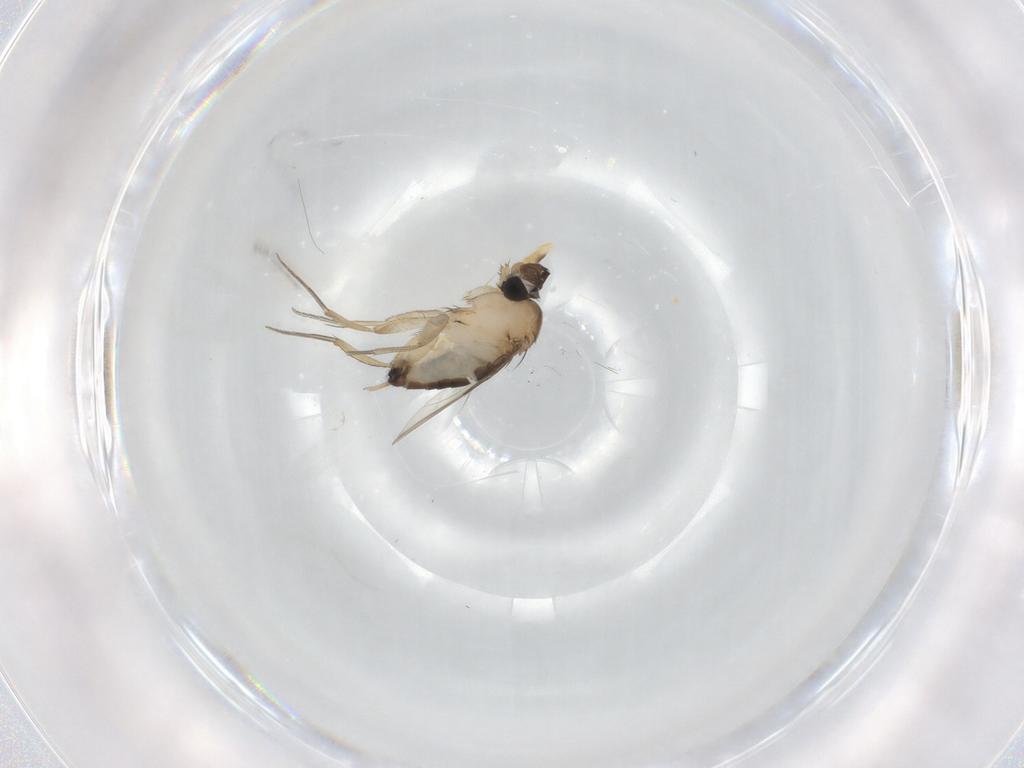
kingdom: Animalia
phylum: Arthropoda
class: Insecta
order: Diptera
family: Phoridae
